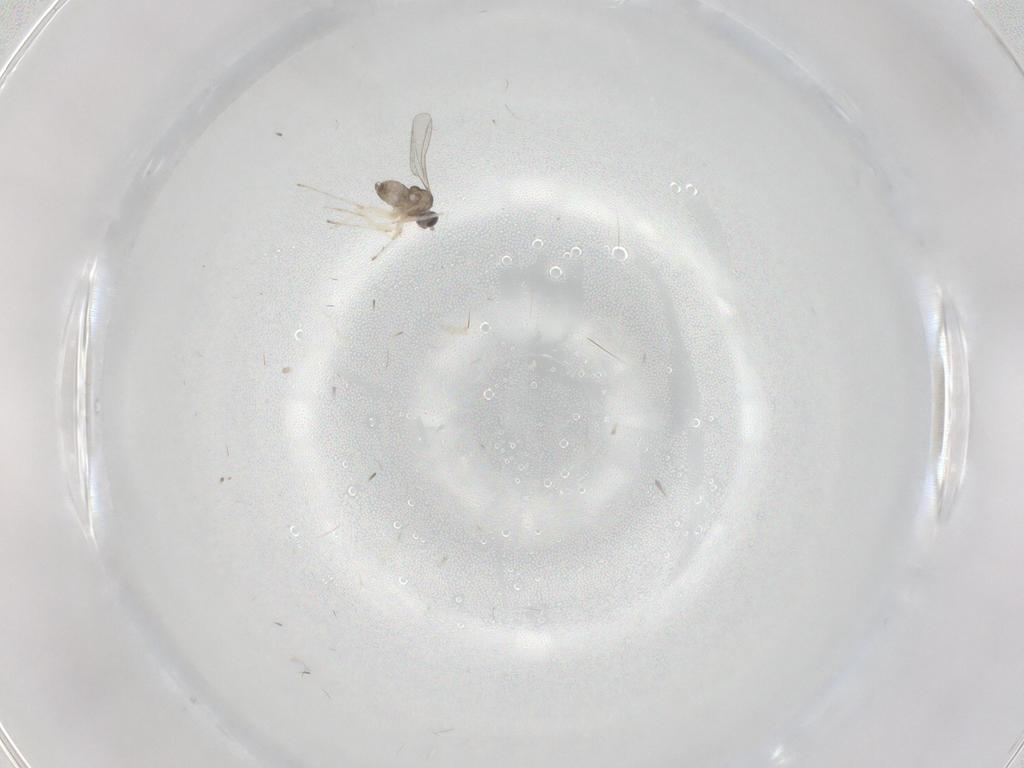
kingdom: Animalia
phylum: Arthropoda
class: Insecta
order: Diptera
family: Cecidomyiidae
